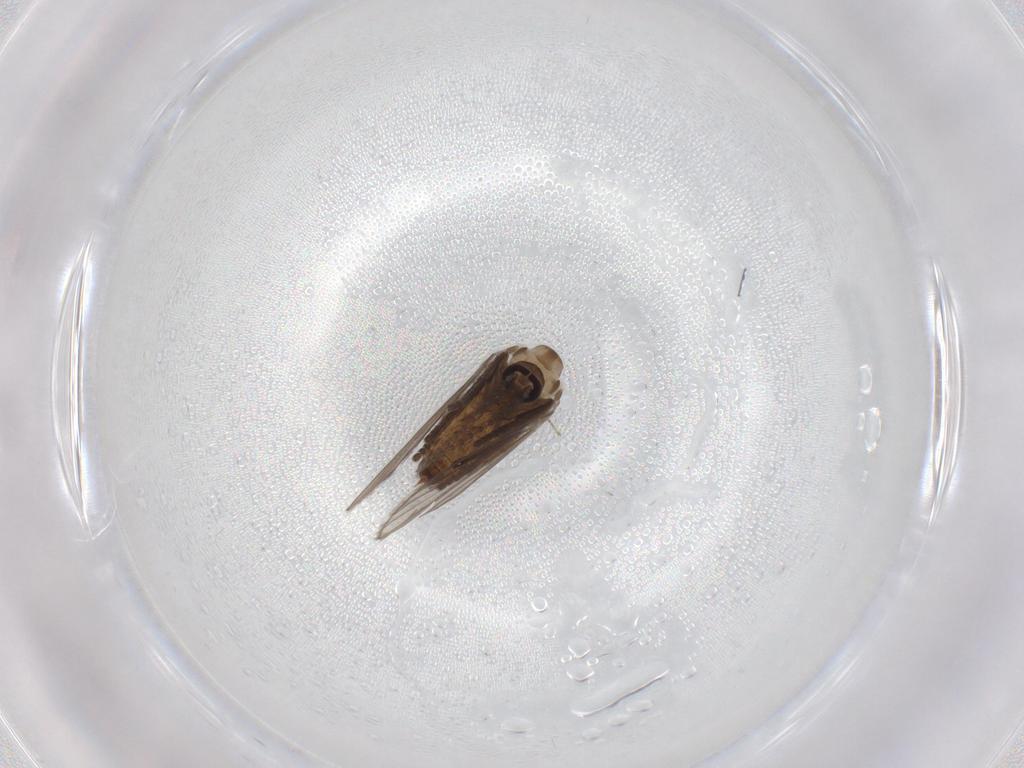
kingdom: Animalia
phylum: Arthropoda
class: Insecta
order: Diptera
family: Psychodidae
